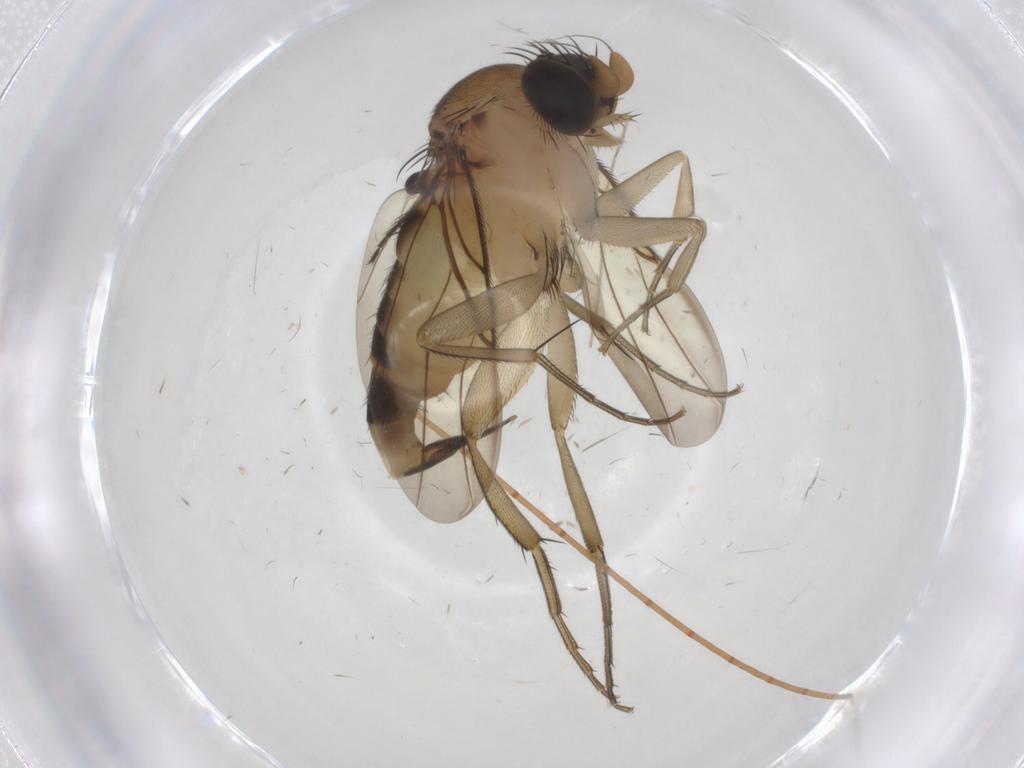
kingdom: Animalia
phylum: Arthropoda
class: Insecta
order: Diptera
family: Phoridae
